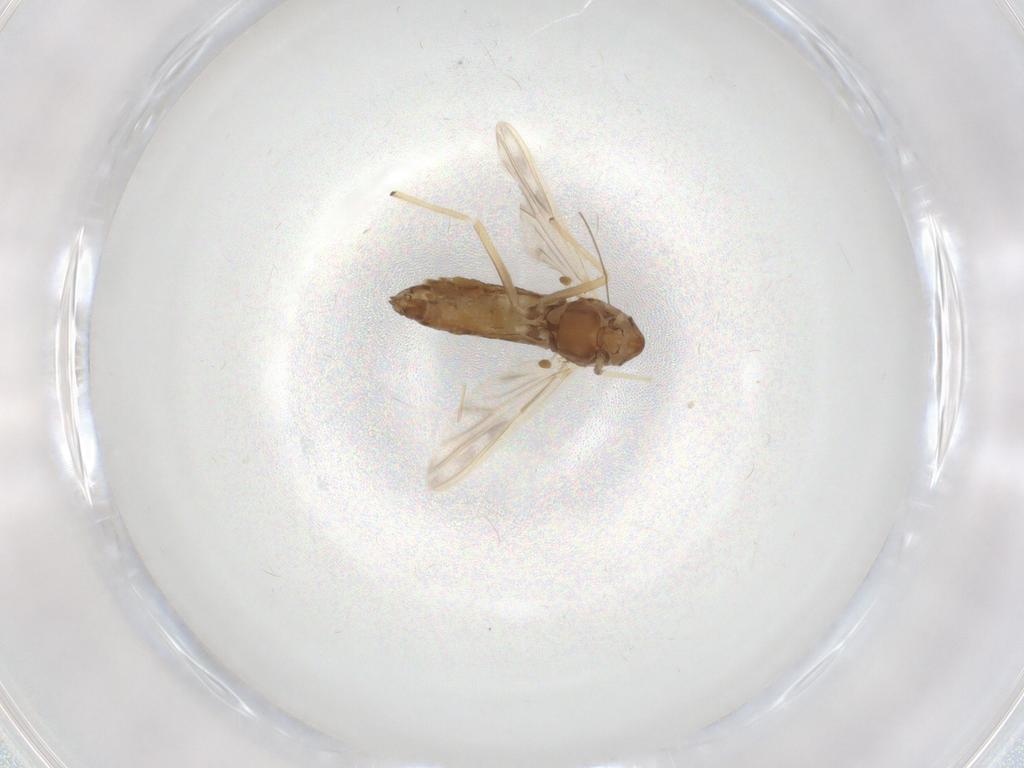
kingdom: Animalia
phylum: Arthropoda
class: Insecta
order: Diptera
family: Chironomidae
